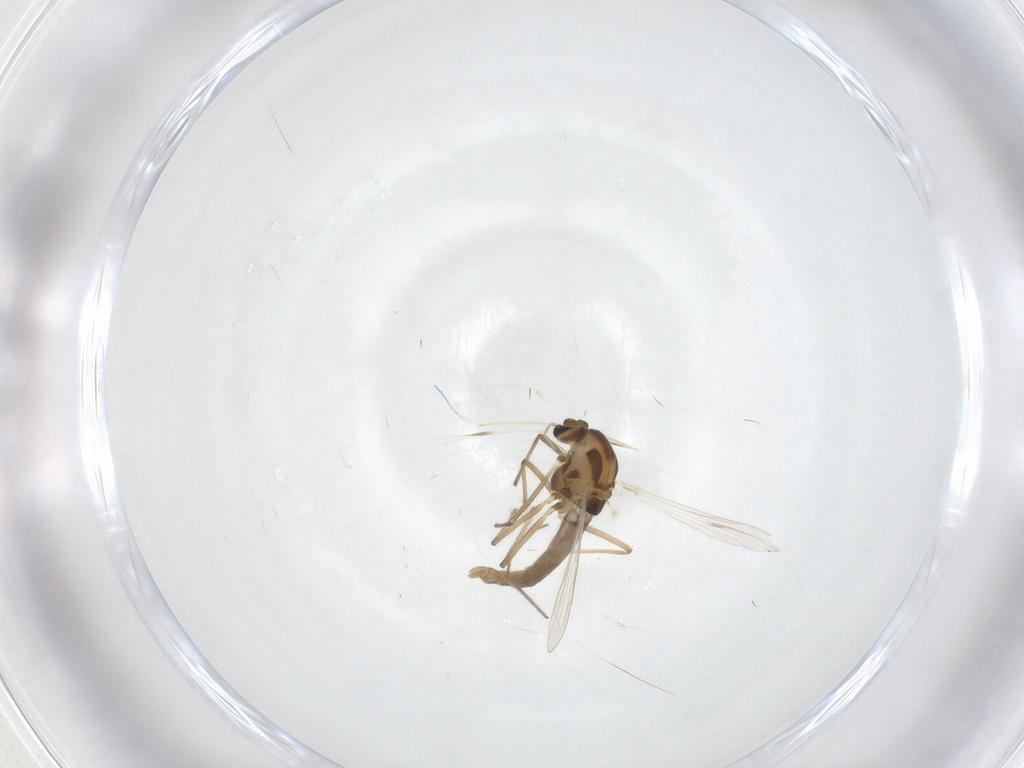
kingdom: Animalia
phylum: Arthropoda
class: Insecta
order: Diptera
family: Chironomidae
